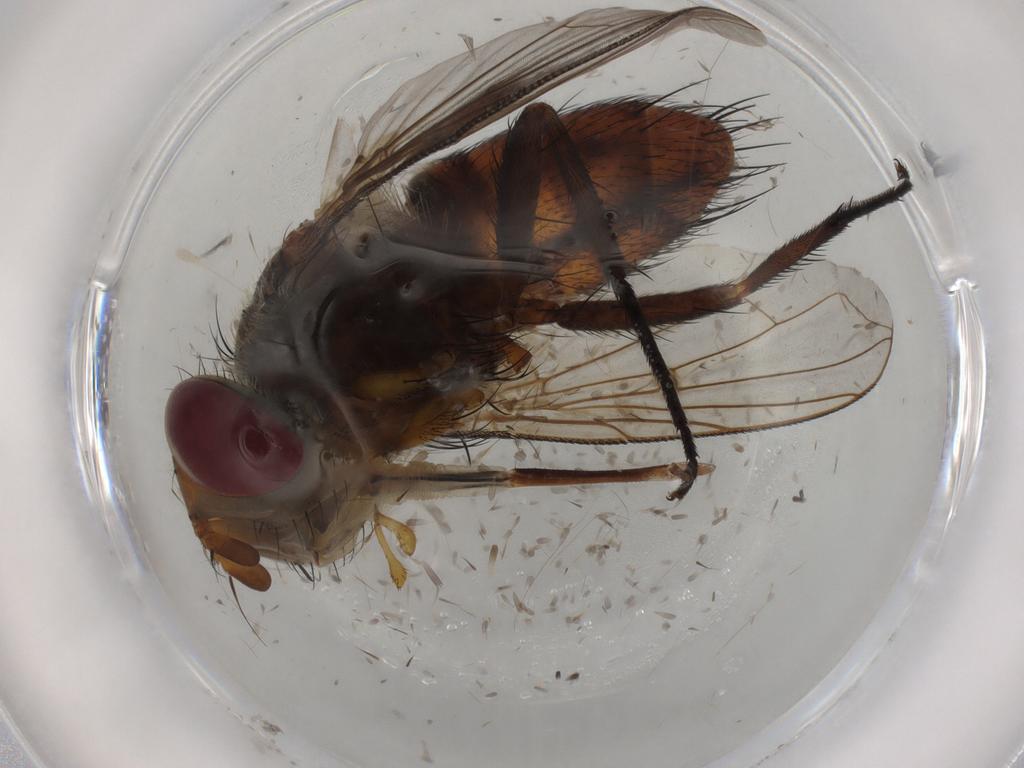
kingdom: Animalia
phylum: Arthropoda
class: Insecta
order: Diptera
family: Tachinidae
